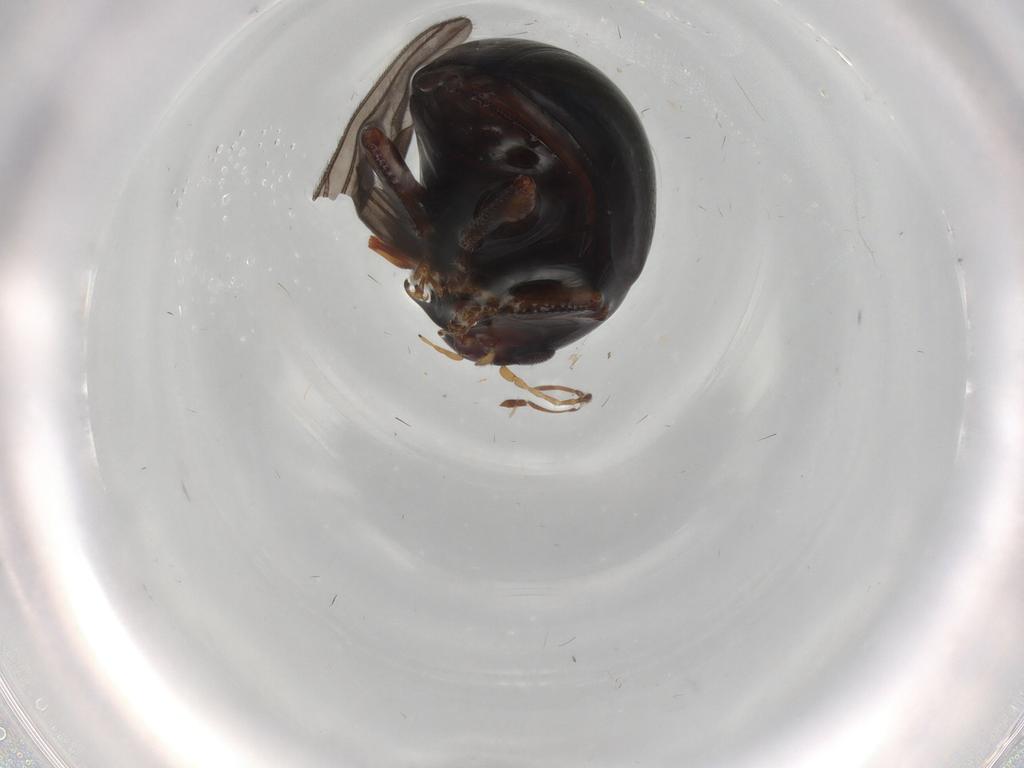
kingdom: Animalia
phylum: Arthropoda
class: Insecta
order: Coleoptera
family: Chrysomelidae
